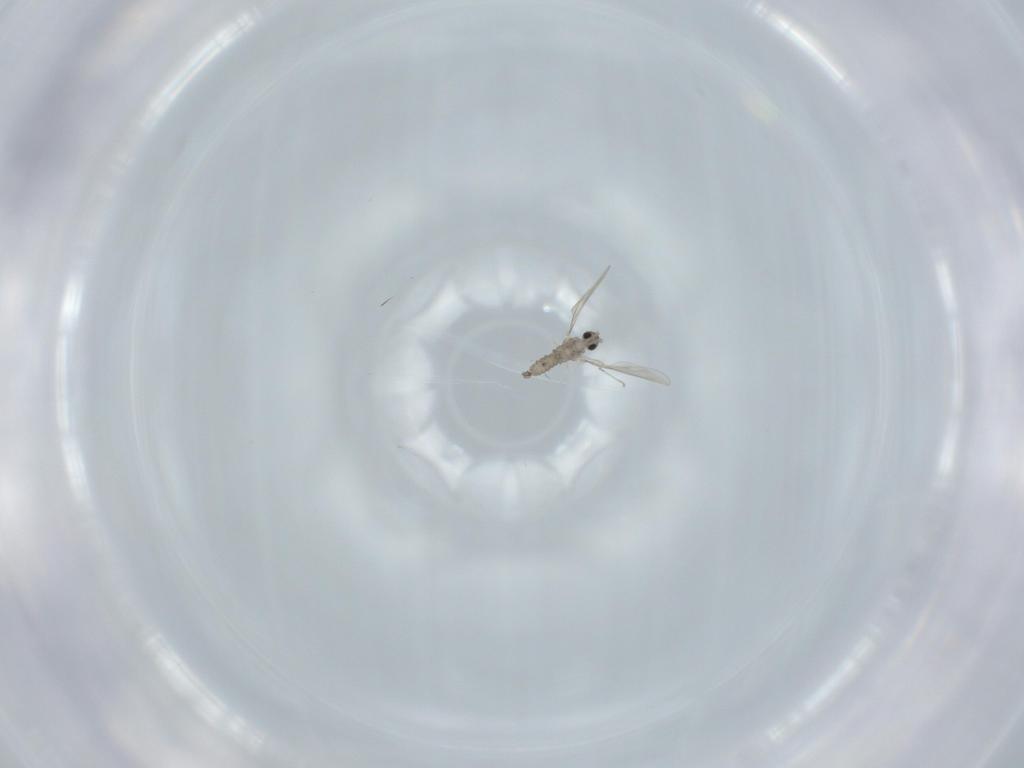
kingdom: Animalia
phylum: Arthropoda
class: Insecta
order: Diptera
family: Cecidomyiidae
